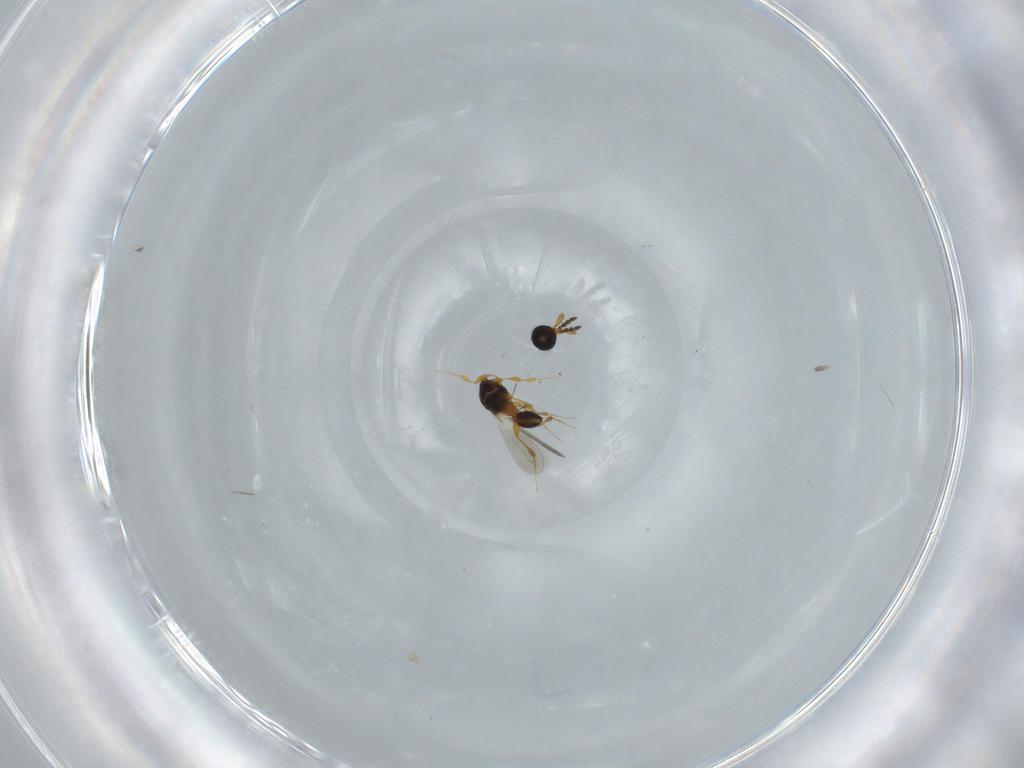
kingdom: Animalia
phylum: Arthropoda
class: Insecta
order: Hymenoptera
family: Platygastridae
